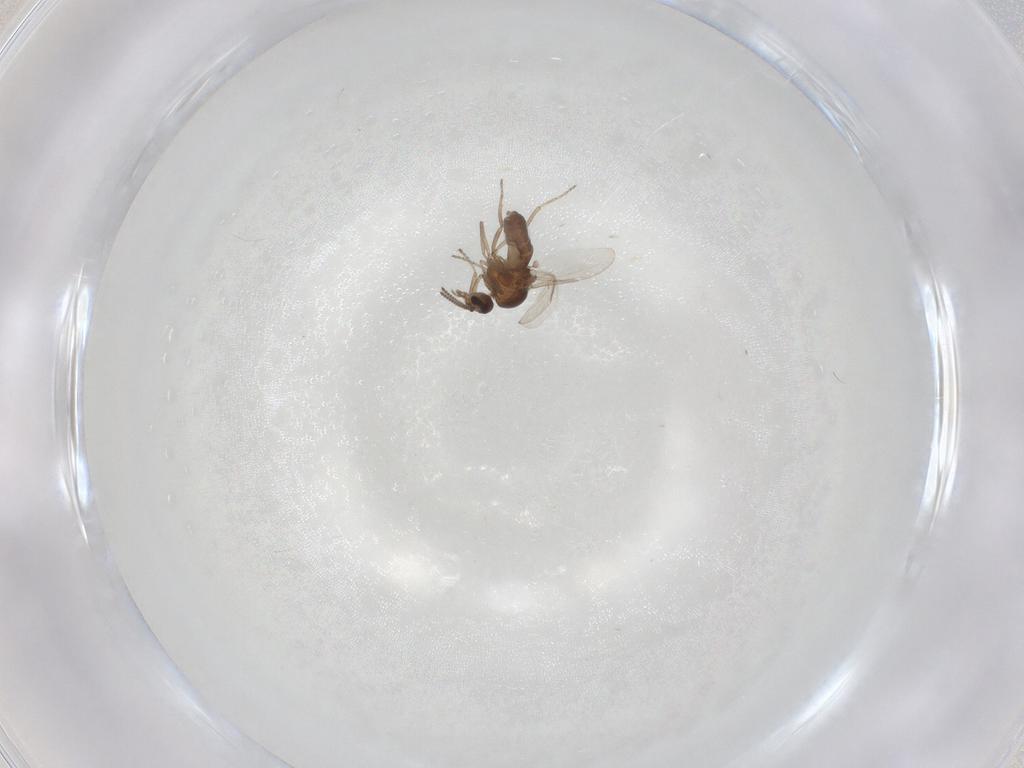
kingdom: Animalia
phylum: Arthropoda
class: Insecta
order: Diptera
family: Ceratopogonidae
